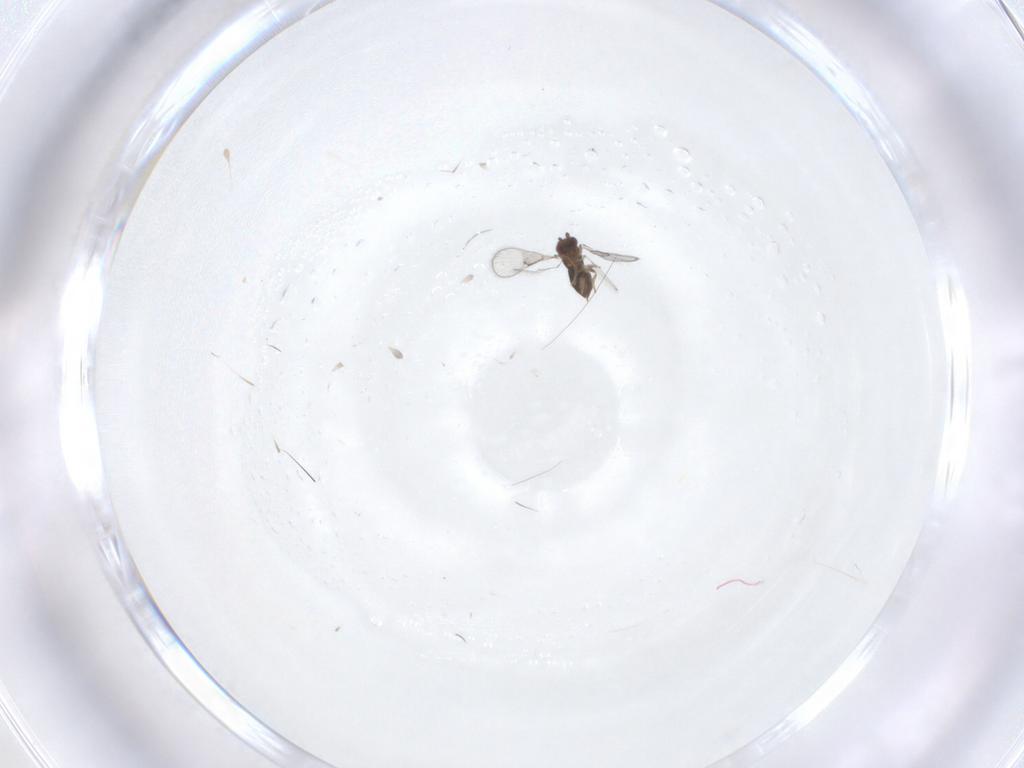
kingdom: Animalia
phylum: Arthropoda
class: Insecta
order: Hymenoptera
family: Trichogrammatidae
